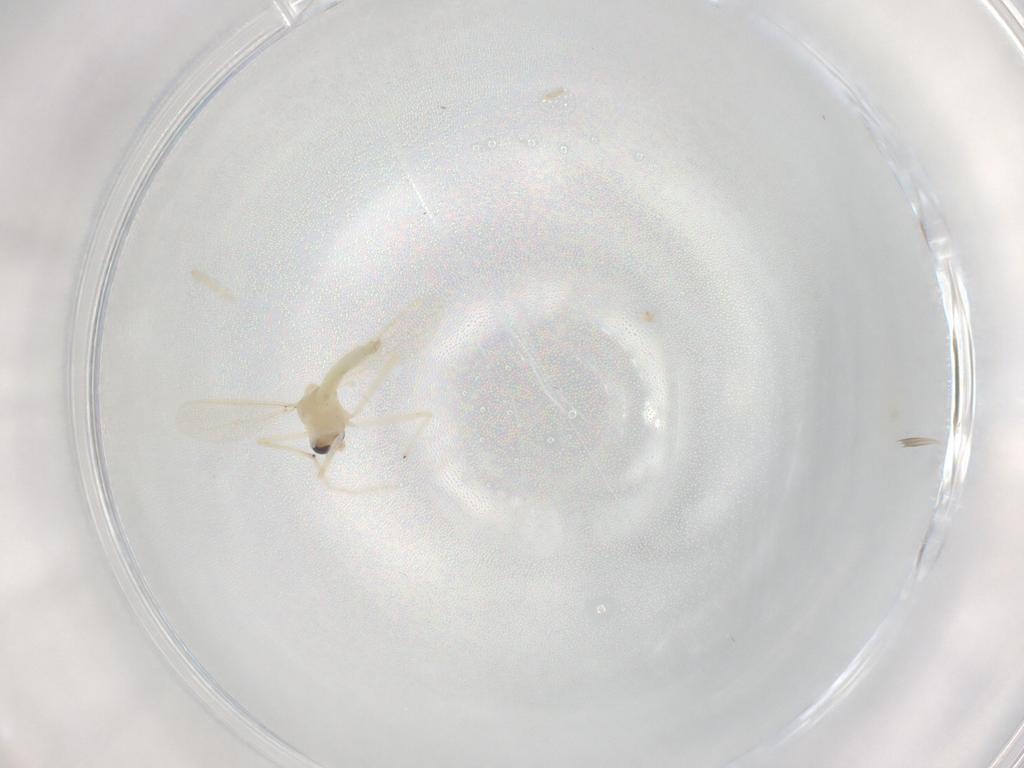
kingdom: Animalia
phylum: Arthropoda
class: Insecta
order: Diptera
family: Chironomidae
